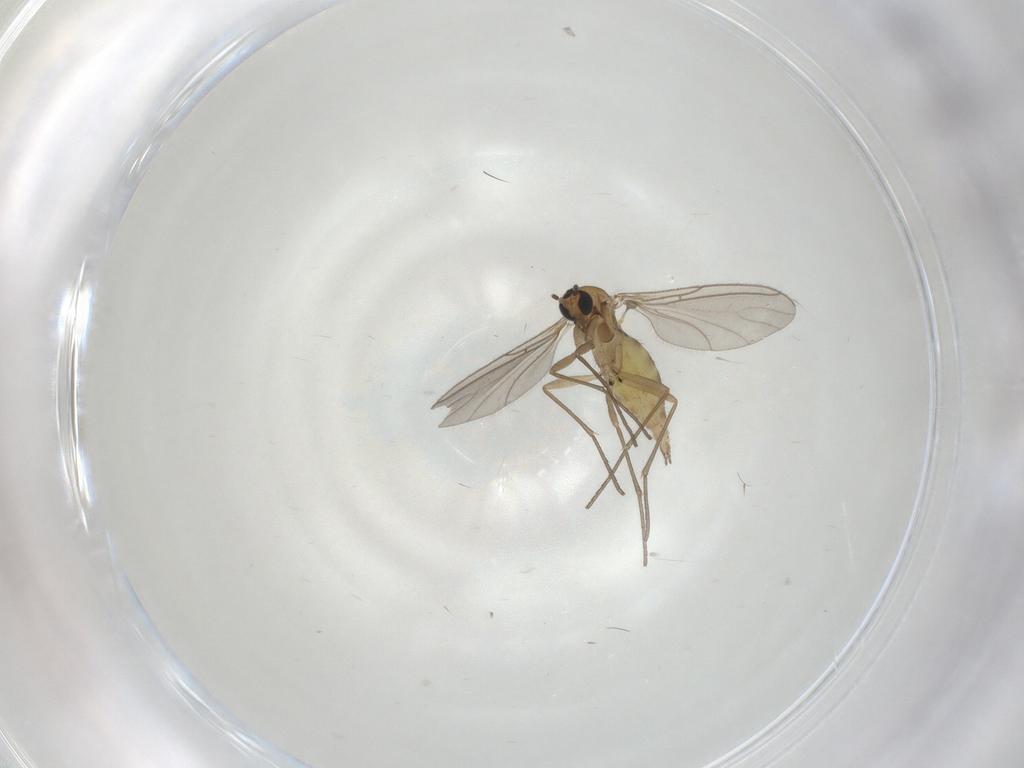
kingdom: Animalia
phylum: Arthropoda
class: Insecta
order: Diptera
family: Sciaridae
